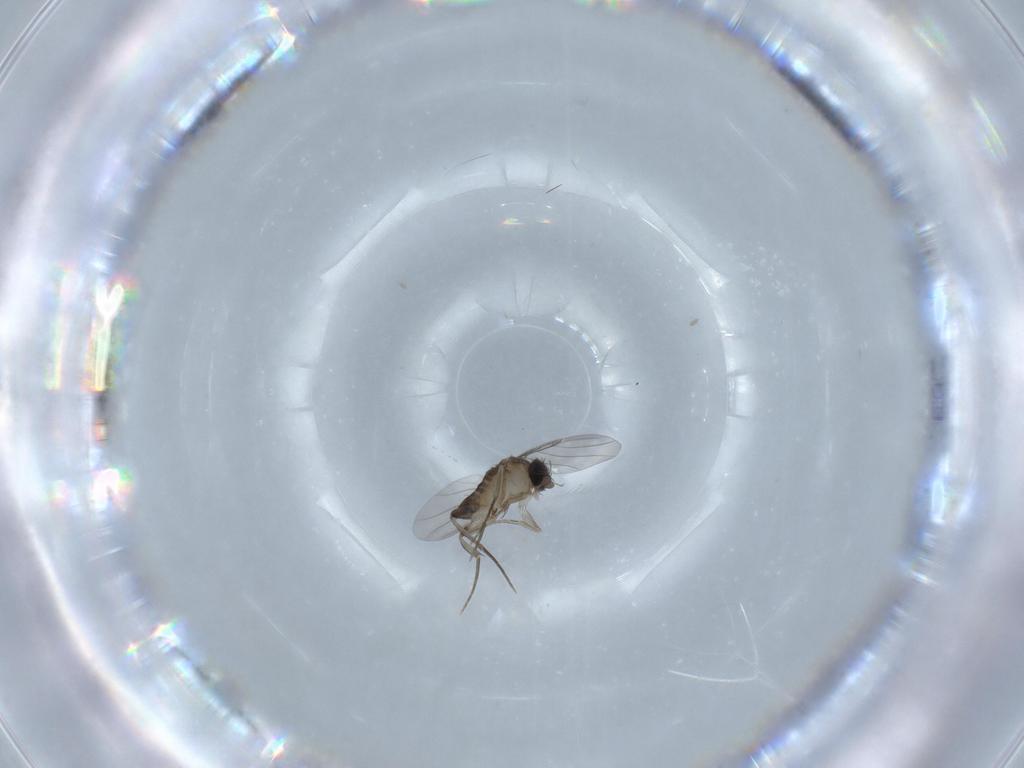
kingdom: Animalia
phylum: Arthropoda
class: Insecta
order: Diptera
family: Phoridae
